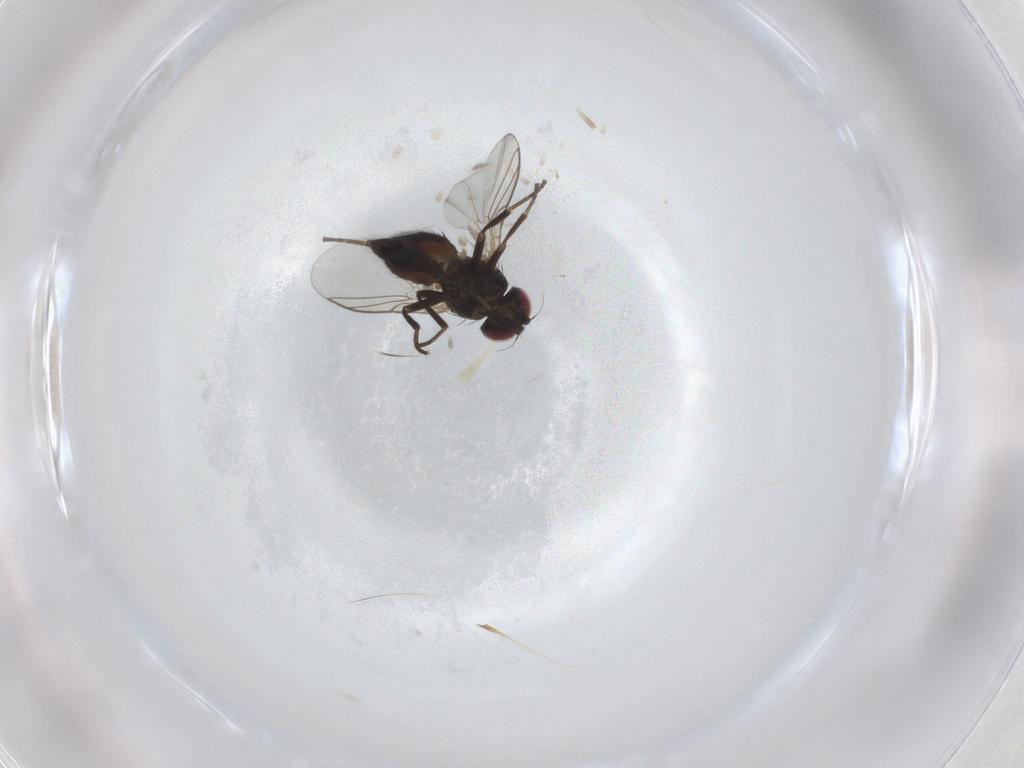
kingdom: Animalia
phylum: Arthropoda
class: Insecta
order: Diptera
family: Agromyzidae
